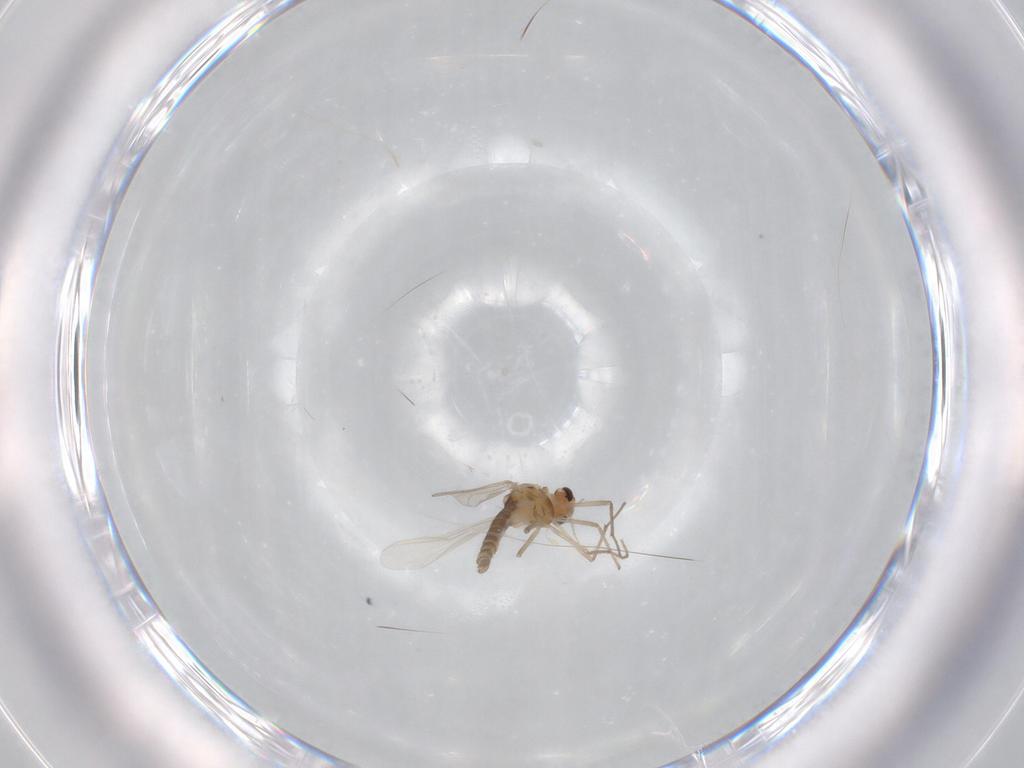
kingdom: Animalia
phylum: Arthropoda
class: Insecta
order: Diptera
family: Chironomidae
